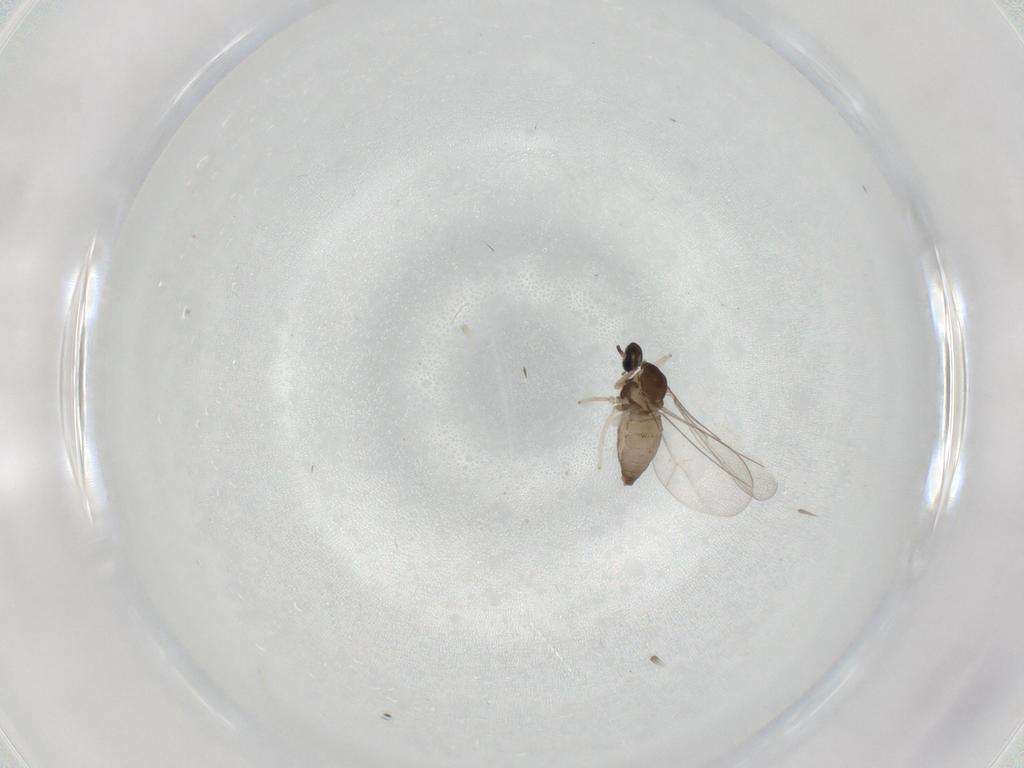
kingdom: Animalia
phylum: Arthropoda
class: Insecta
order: Diptera
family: Cecidomyiidae
